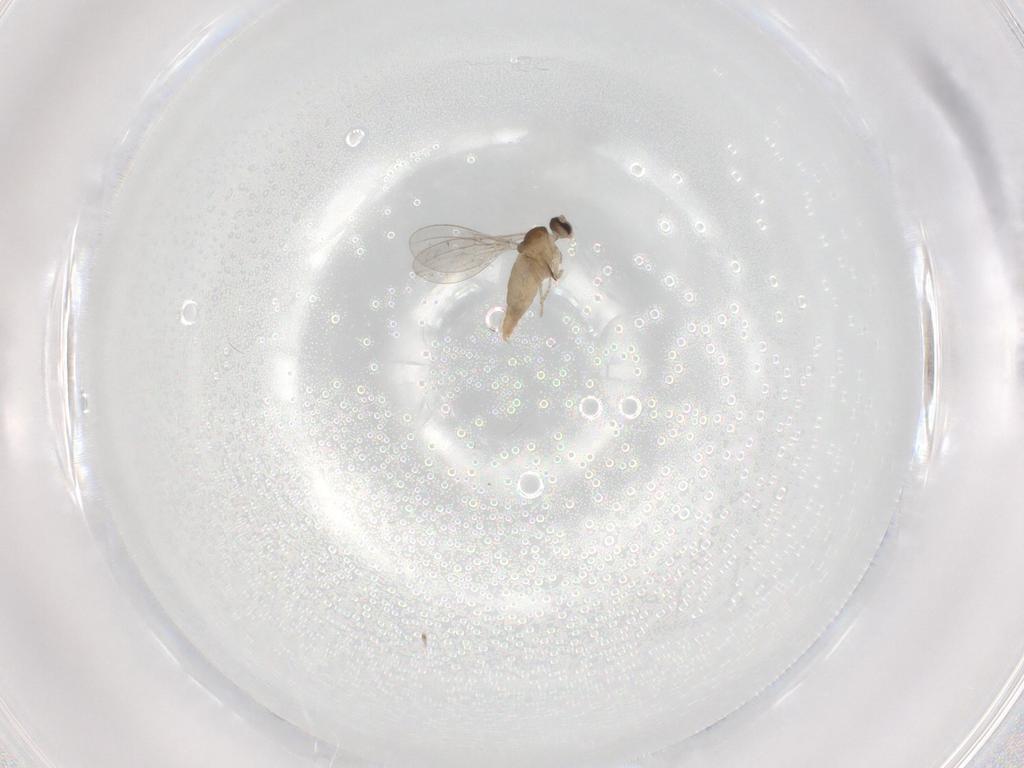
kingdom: Animalia
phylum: Arthropoda
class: Insecta
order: Diptera
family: Cecidomyiidae
